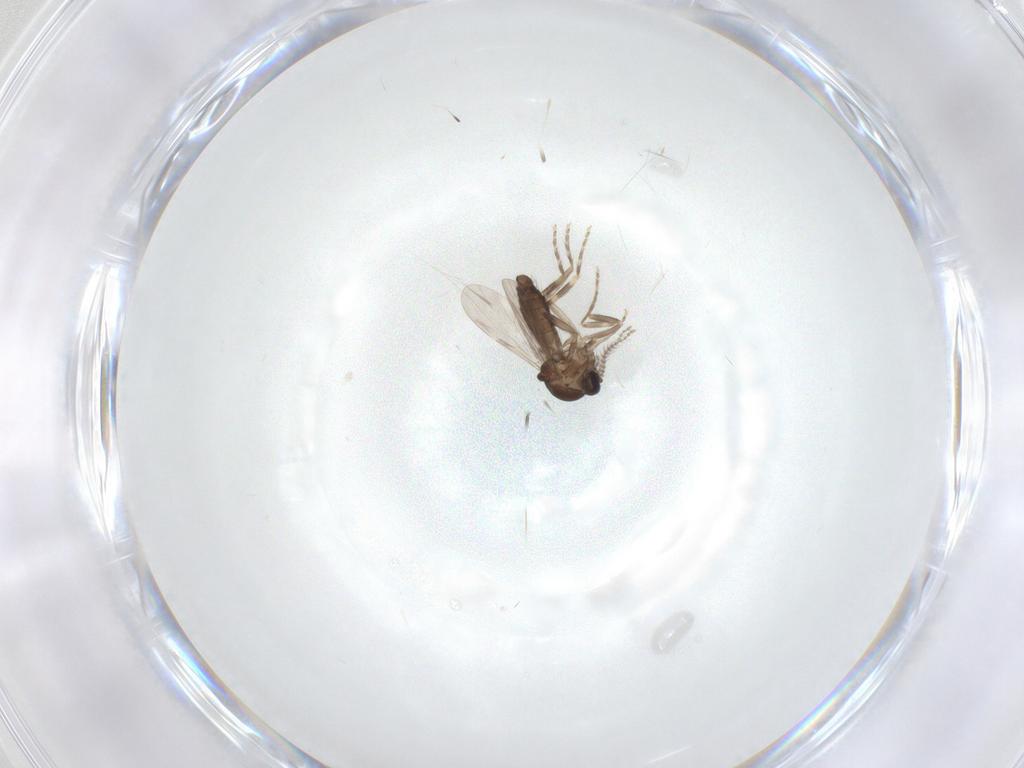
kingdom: Animalia
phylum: Arthropoda
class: Insecta
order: Diptera
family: Ceratopogonidae
